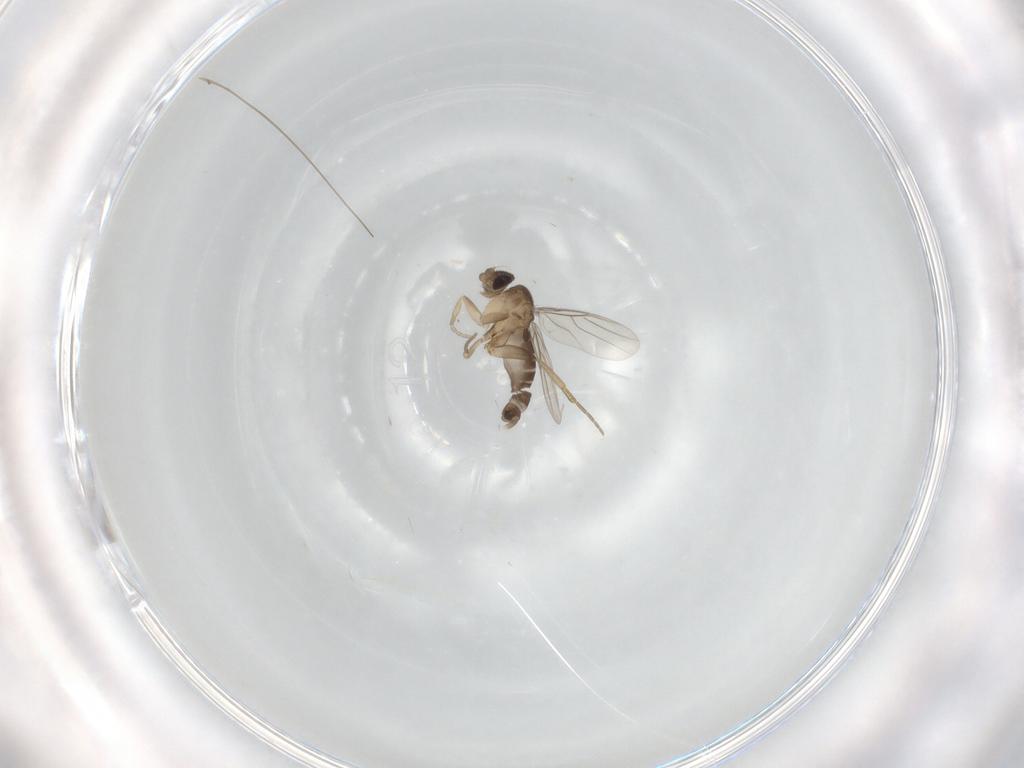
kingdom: Animalia
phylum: Arthropoda
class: Insecta
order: Diptera
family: Phoridae
